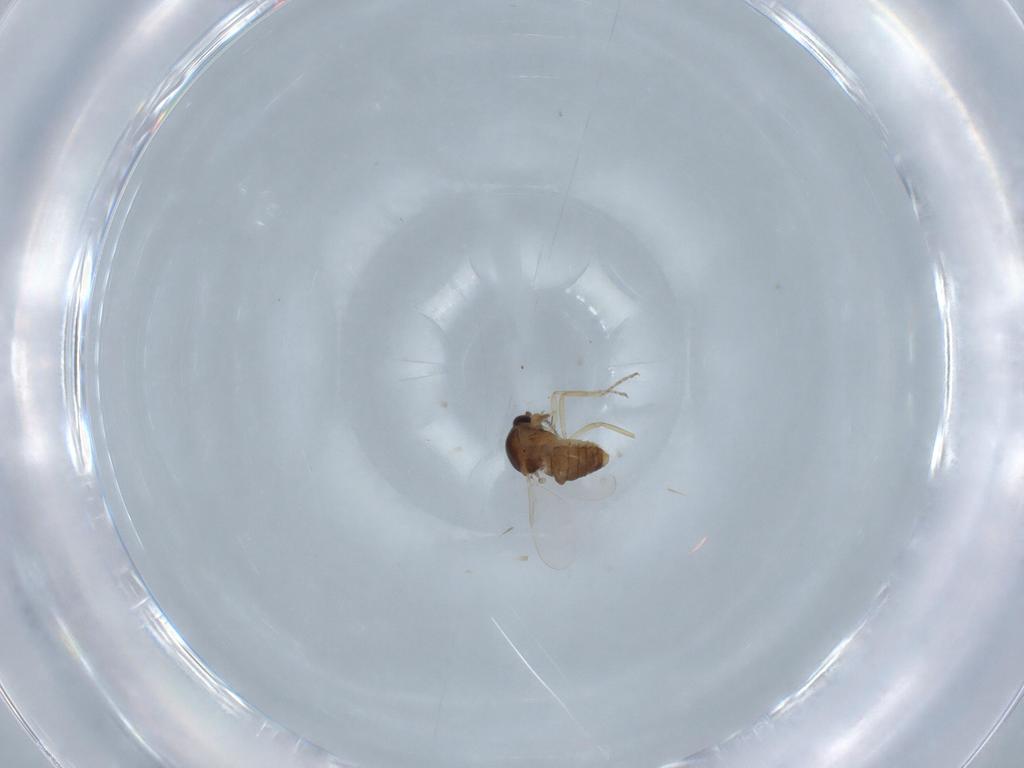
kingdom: Animalia
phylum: Arthropoda
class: Insecta
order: Diptera
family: Ceratopogonidae
